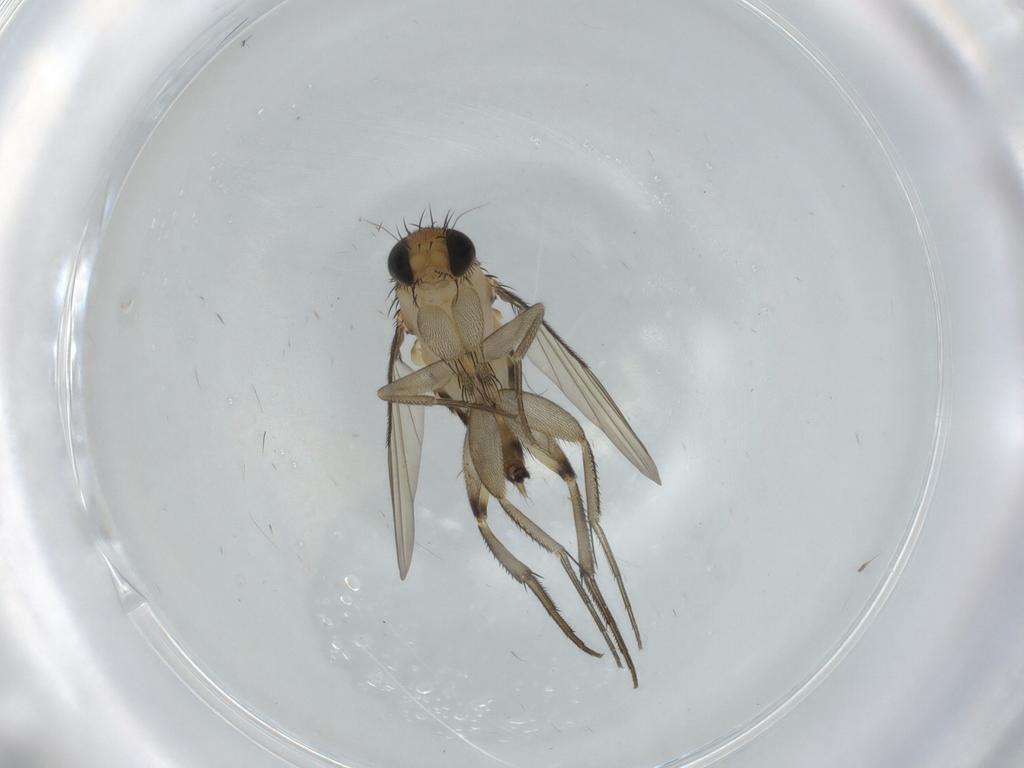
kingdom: Animalia
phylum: Arthropoda
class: Insecta
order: Diptera
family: Phoridae
